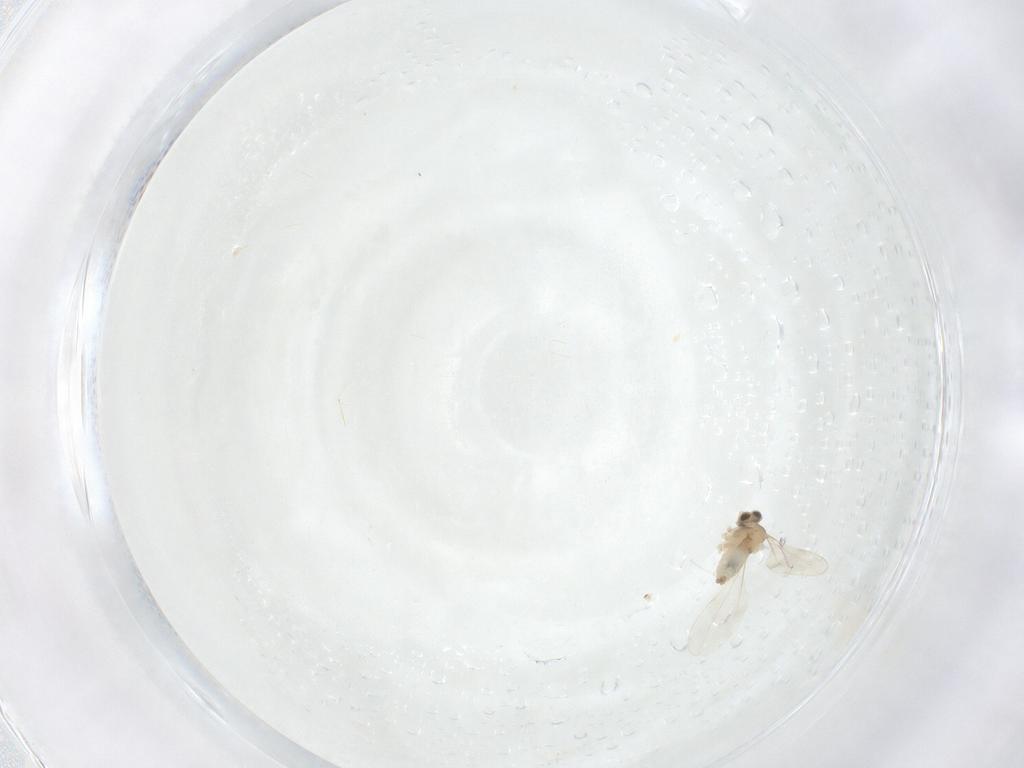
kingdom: Animalia
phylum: Arthropoda
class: Insecta
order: Diptera
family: Cecidomyiidae
